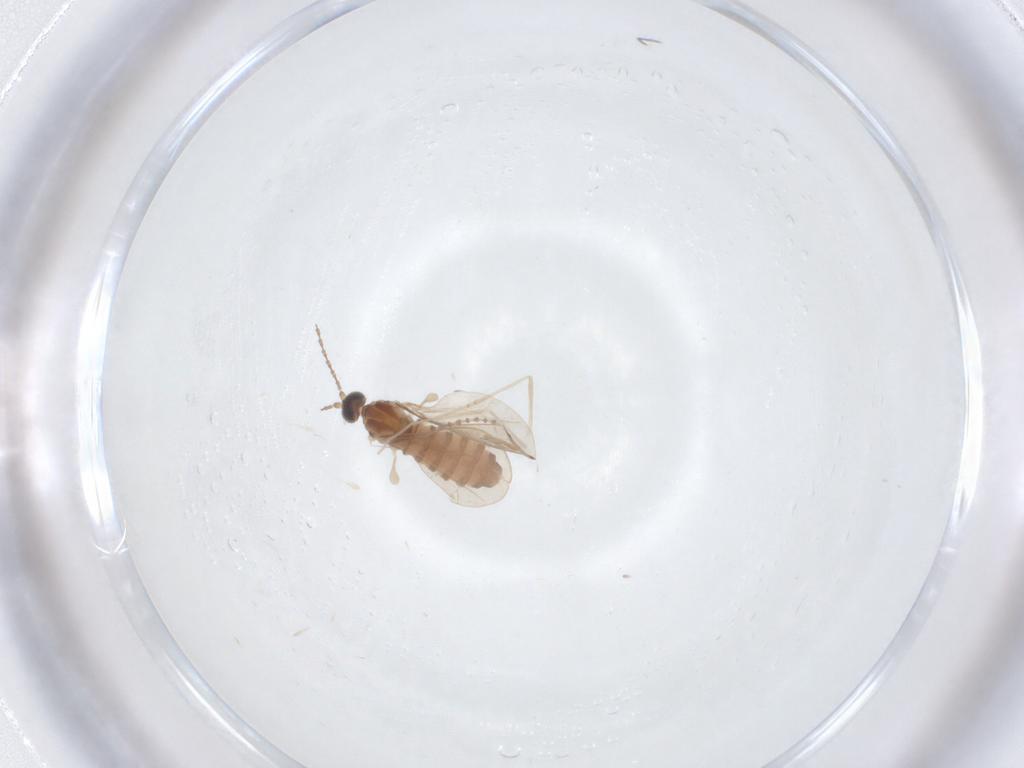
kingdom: Animalia
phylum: Arthropoda
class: Insecta
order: Diptera
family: Cecidomyiidae
